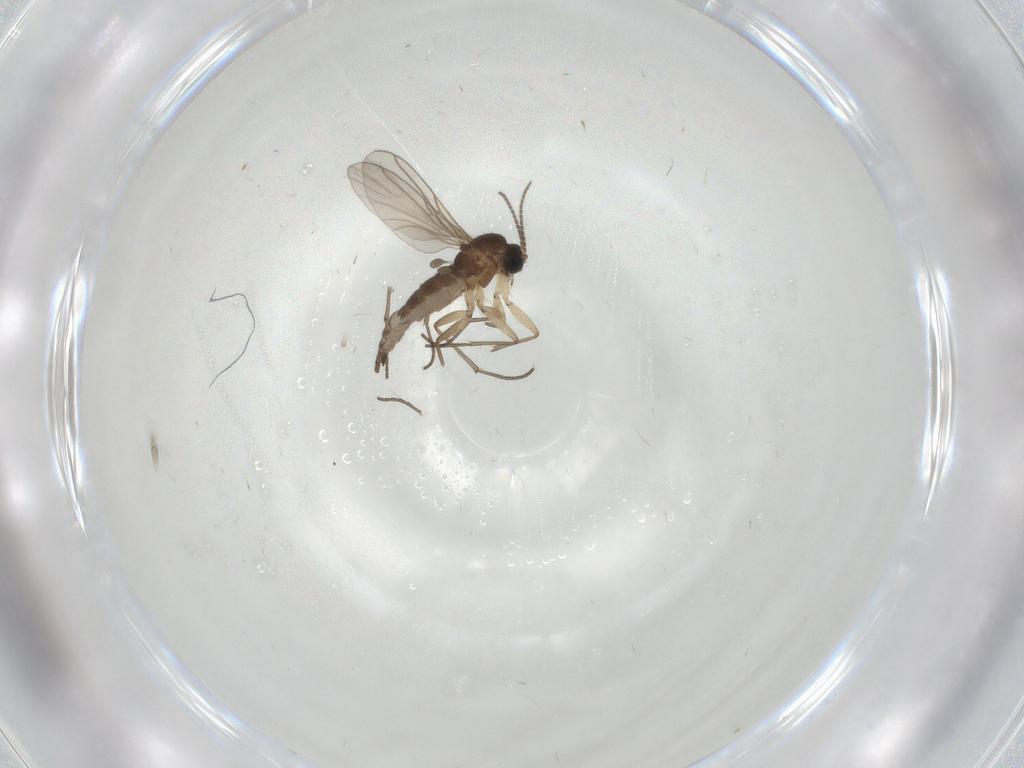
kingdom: Animalia
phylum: Arthropoda
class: Insecta
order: Diptera
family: Sciaridae
